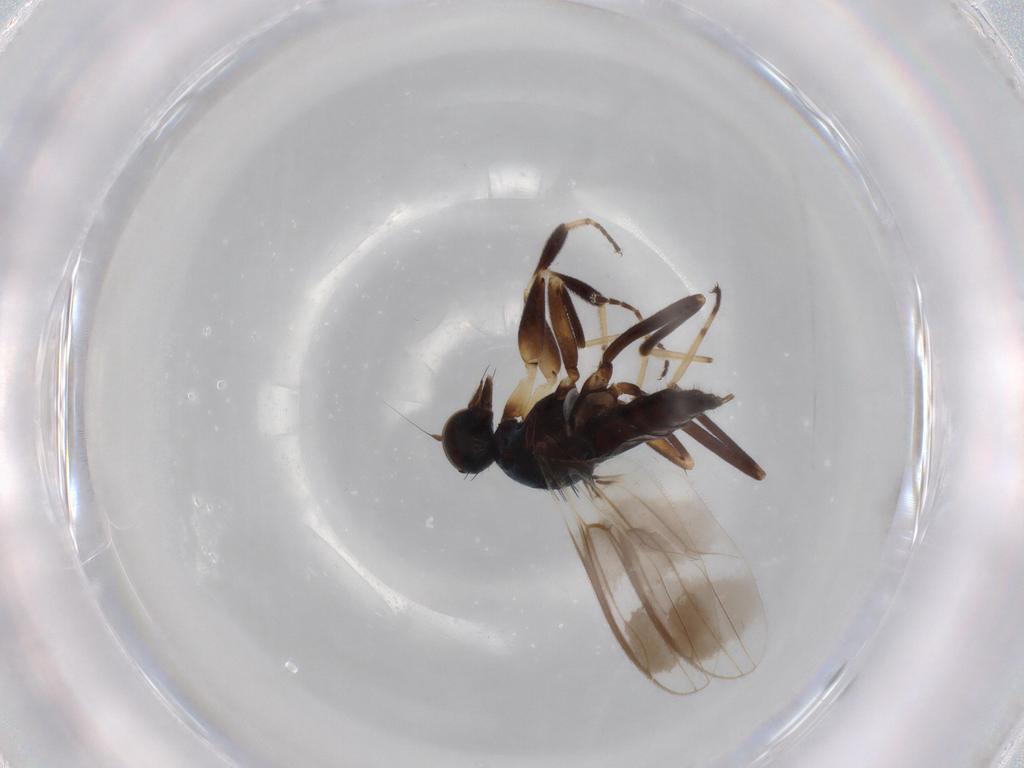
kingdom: Animalia
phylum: Arthropoda
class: Insecta
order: Diptera
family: Hybotidae
